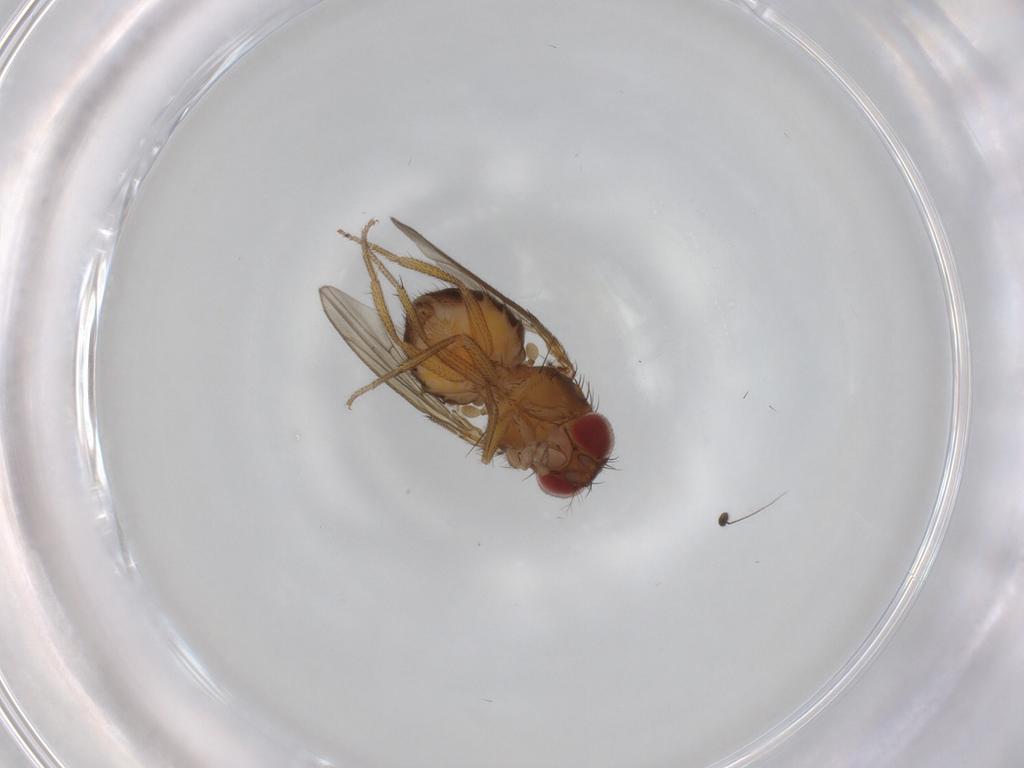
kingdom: Animalia
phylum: Arthropoda
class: Insecta
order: Diptera
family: Drosophilidae
